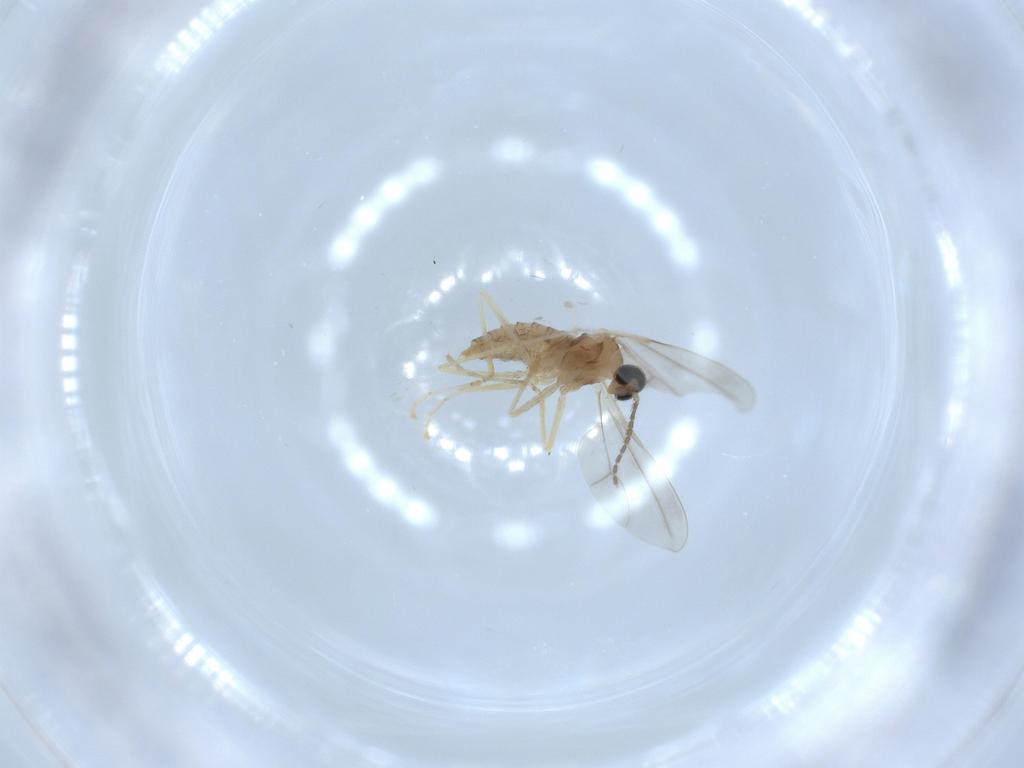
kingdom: Animalia
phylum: Arthropoda
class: Insecta
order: Diptera
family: Cecidomyiidae
